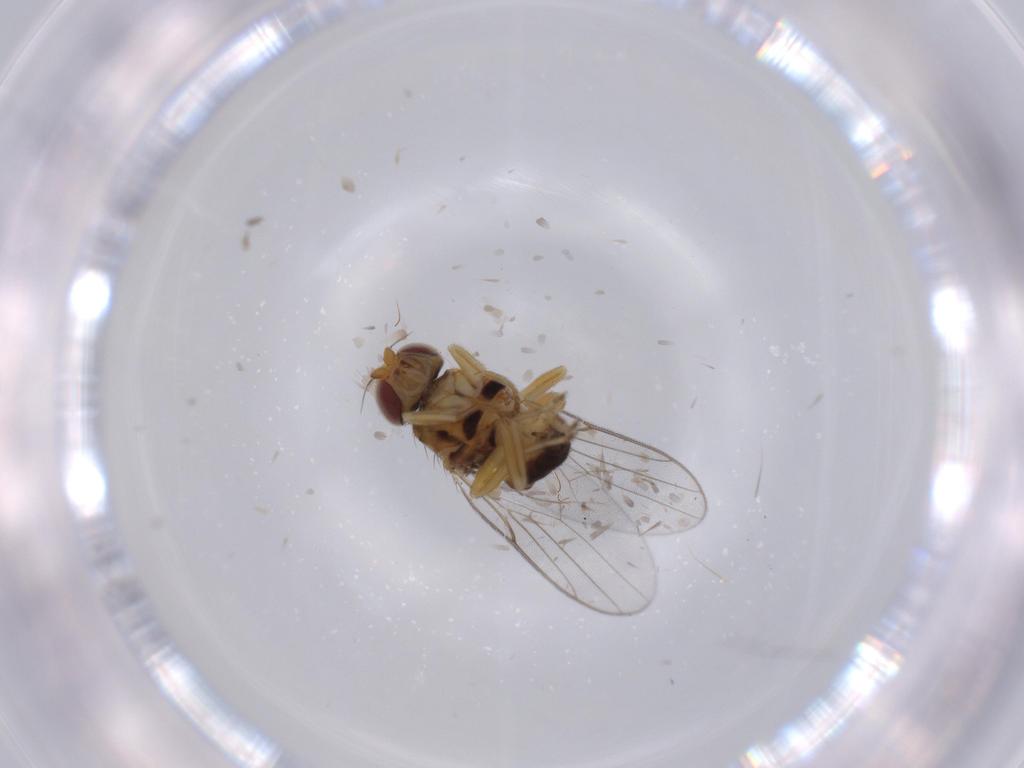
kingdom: Animalia
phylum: Arthropoda
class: Insecta
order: Diptera
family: Chloropidae
